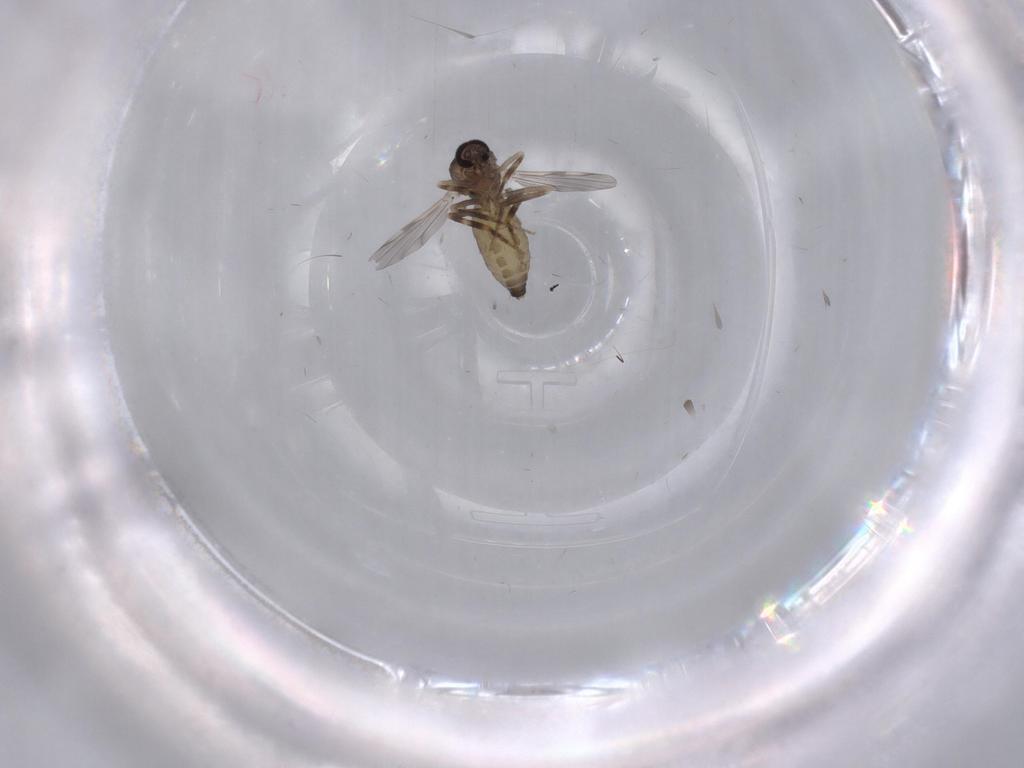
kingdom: Animalia
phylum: Arthropoda
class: Insecta
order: Diptera
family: Ceratopogonidae
